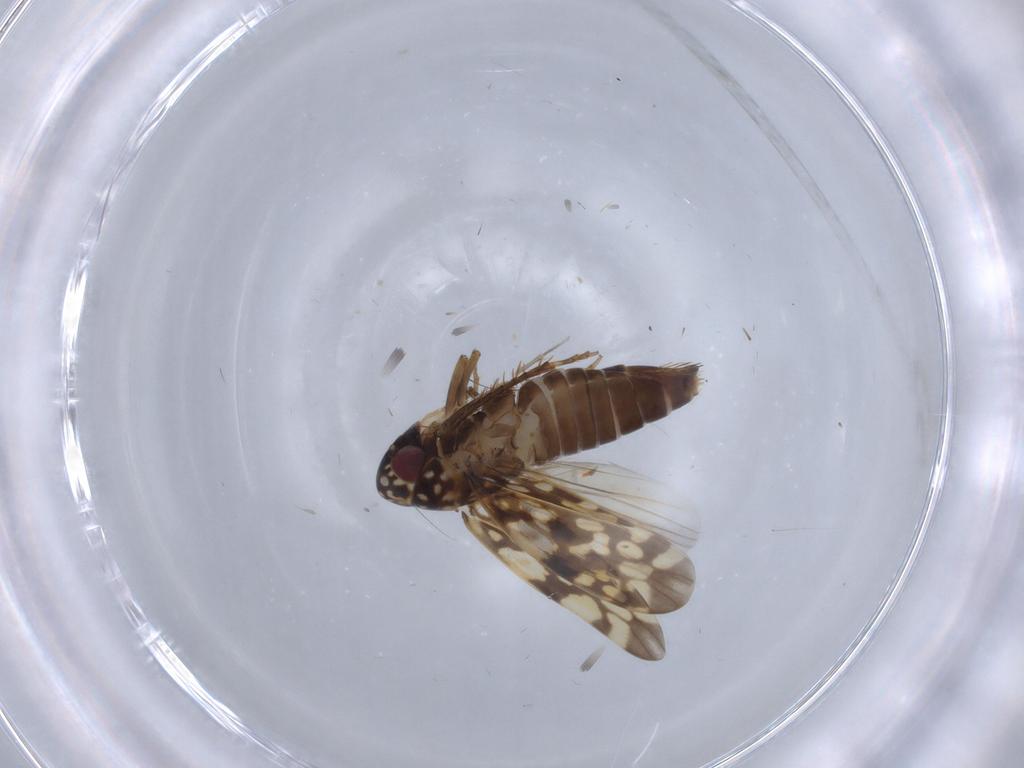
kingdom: Animalia
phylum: Arthropoda
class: Insecta
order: Hemiptera
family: Cicadellidae
